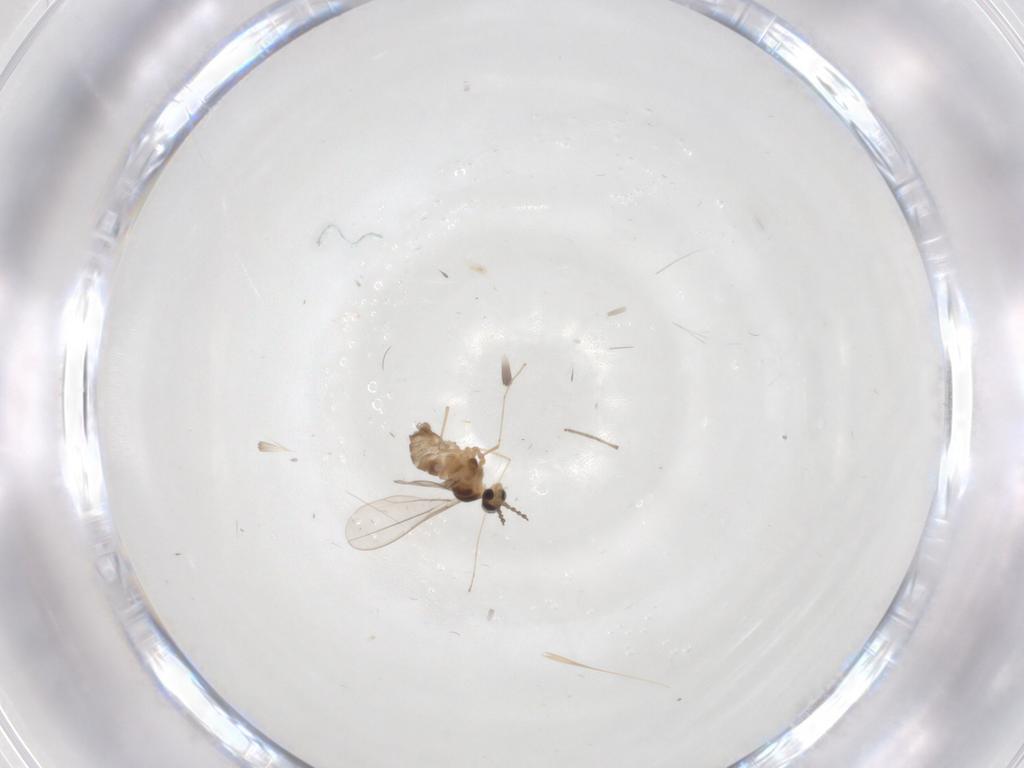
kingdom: Animalia
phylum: Arthropoda
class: Insecta
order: Diptera
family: Cecidomyiidae
